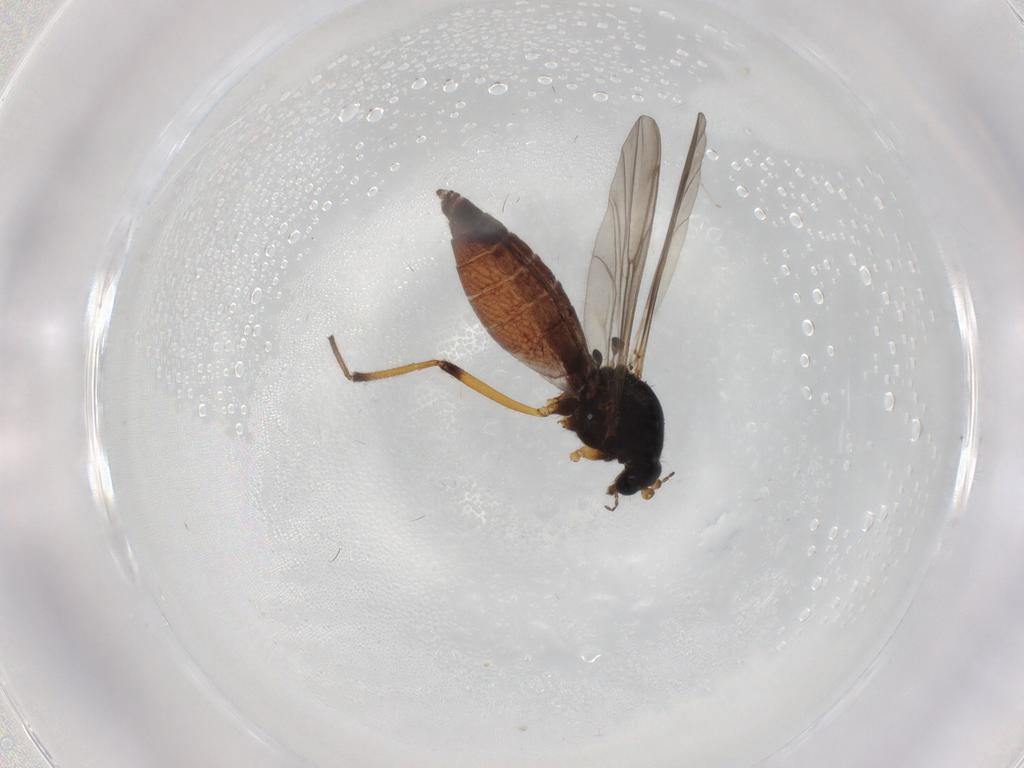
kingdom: Animalia
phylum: Arthropoda
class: Insecta
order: Diptera
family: Ceratopogonidae
